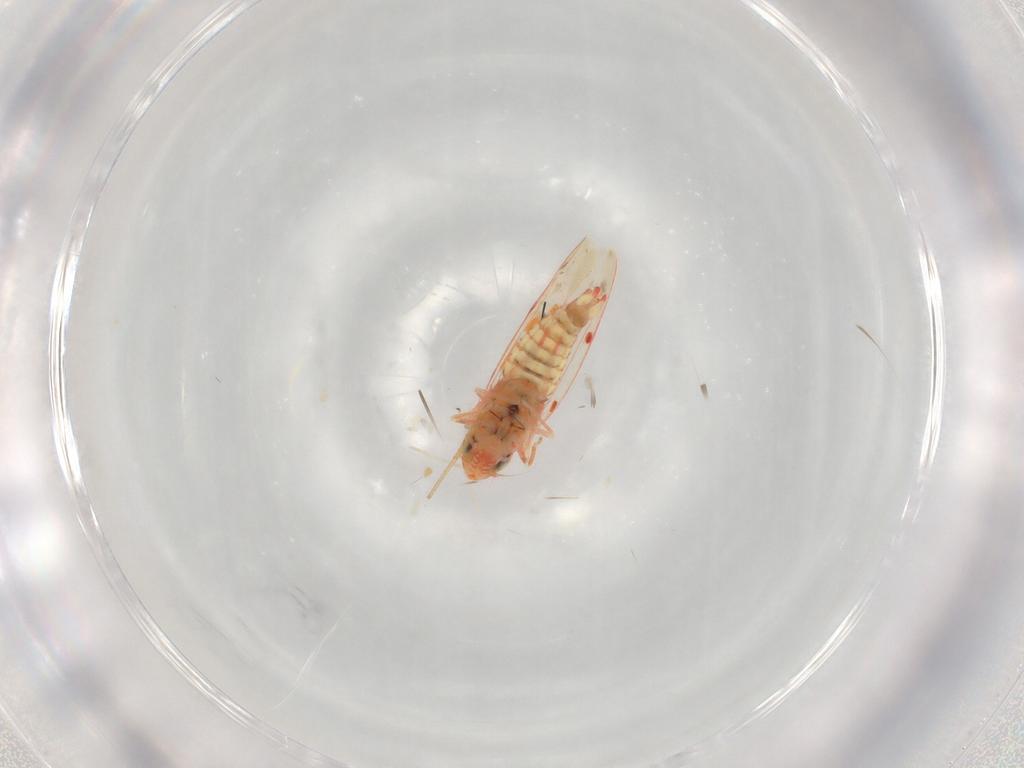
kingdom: Animalia
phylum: Arthropoda
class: Insecta
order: Hemiptera
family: Cicadellidae
